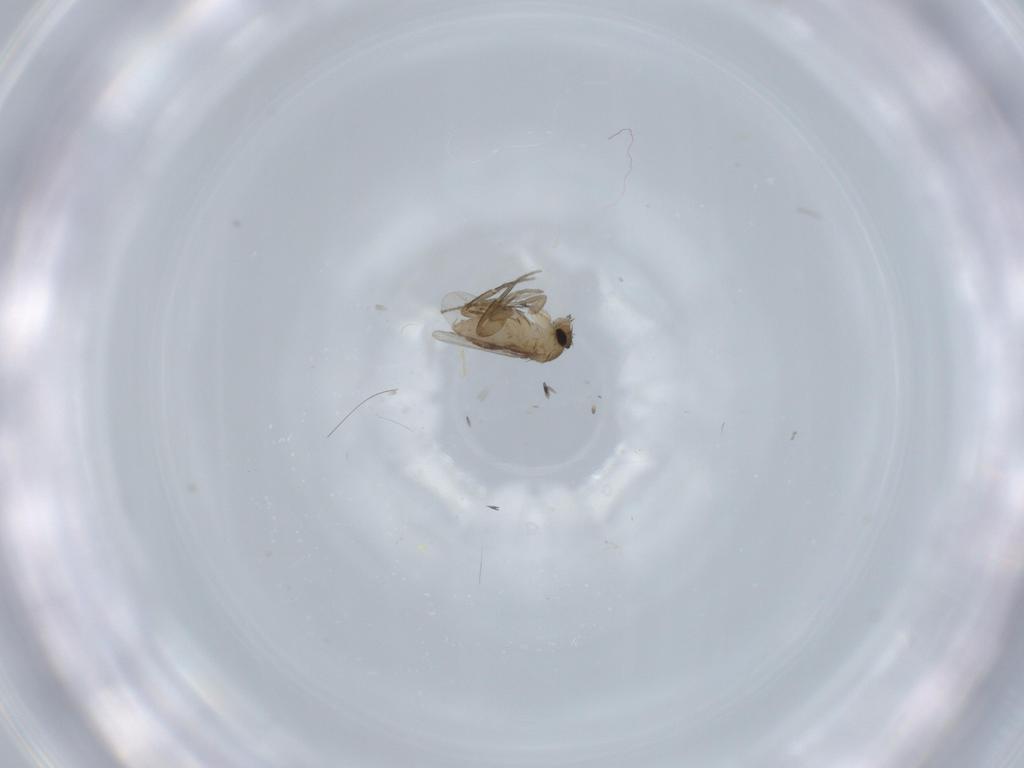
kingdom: Animalia
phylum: Arthropoda
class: Insecta
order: Diptera
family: Phoridae
